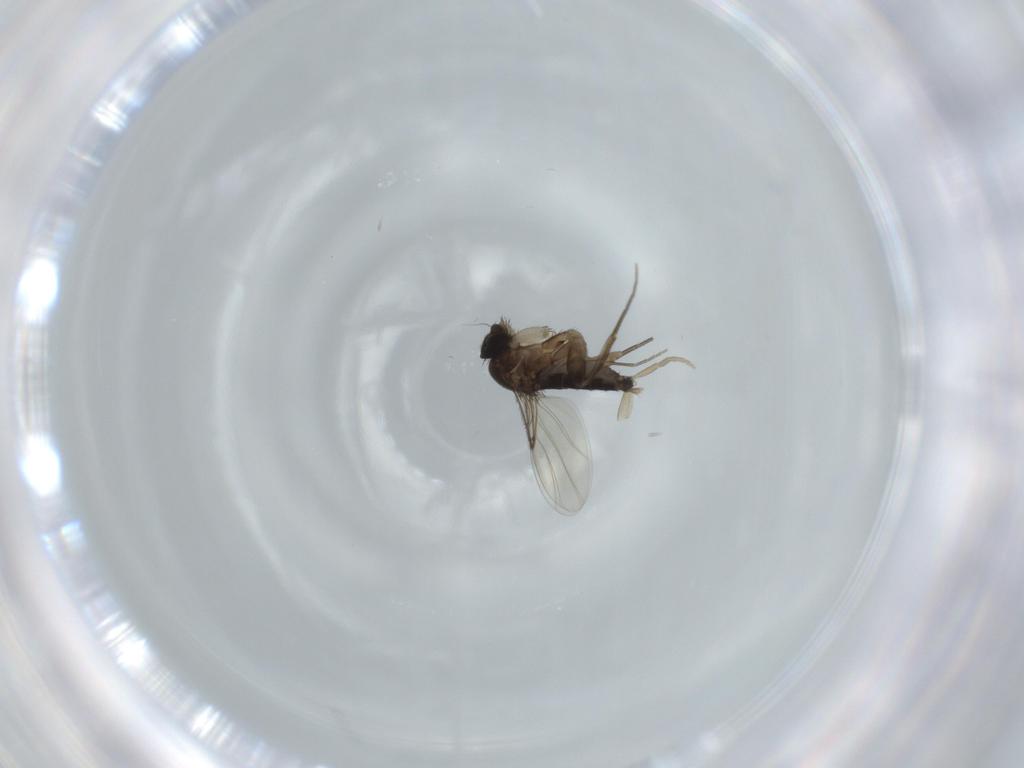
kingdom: Animalia
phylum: Arthropoda
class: Insecta
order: Diptera
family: Cecidomyiidae
